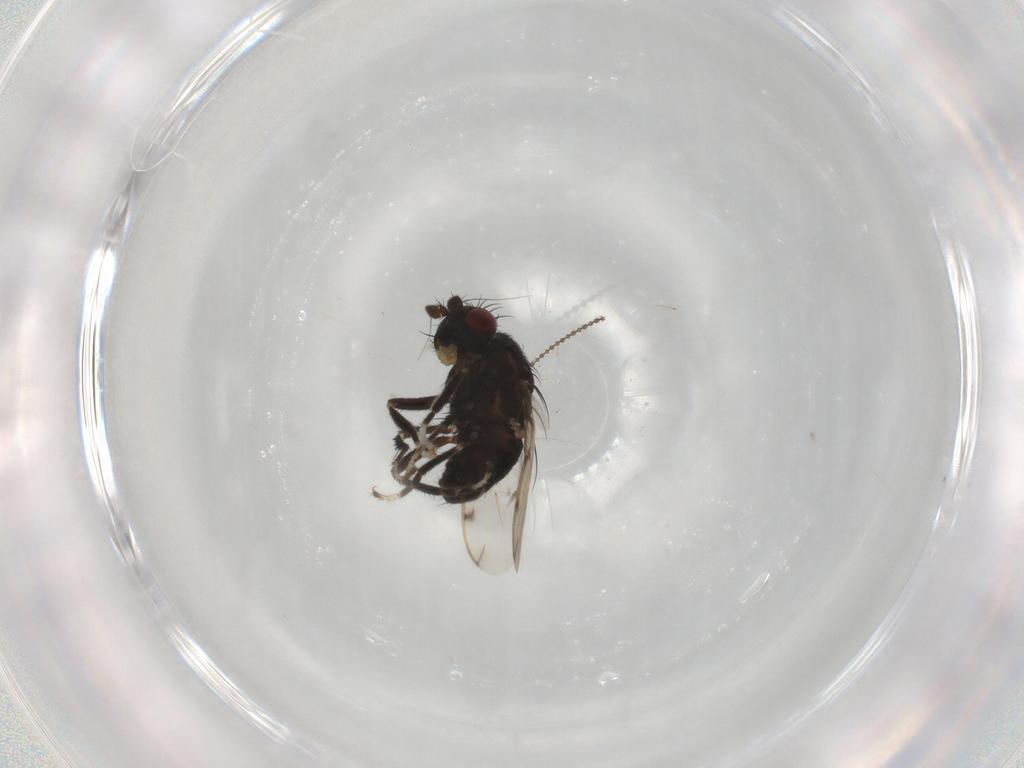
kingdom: Animalia
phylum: Arthropoda
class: Insecta
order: Diptera
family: Sphaeroceridae
